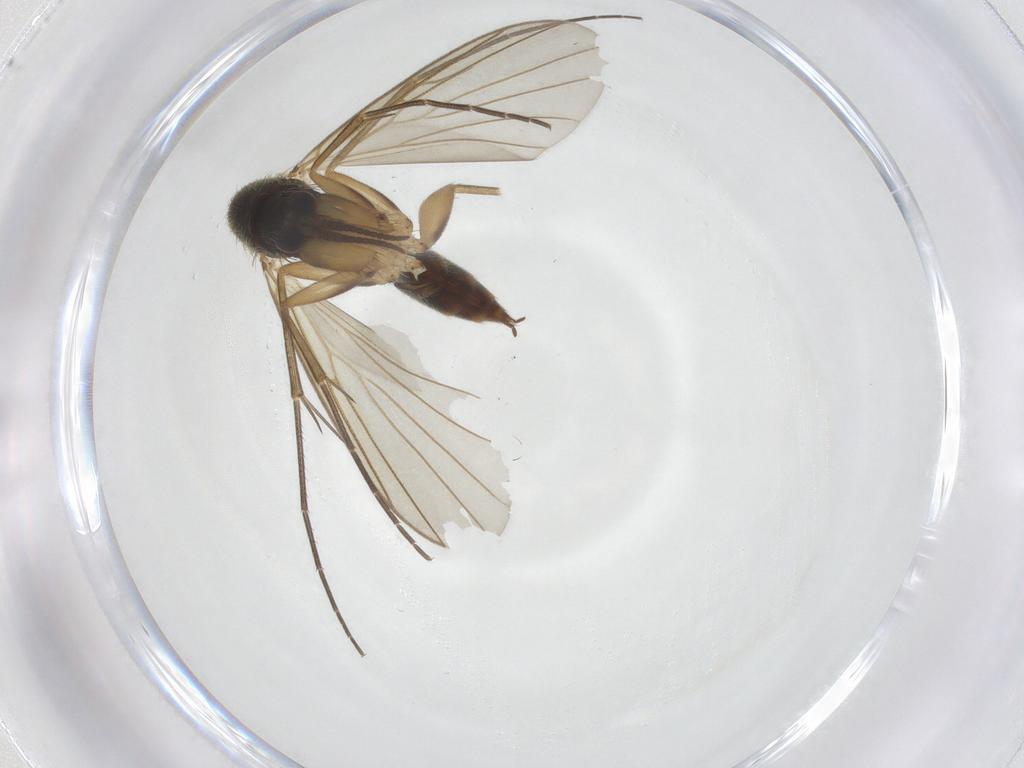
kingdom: Animalia
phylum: Arthropoda
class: Insecta
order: Diptera
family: Mycetophilidae
